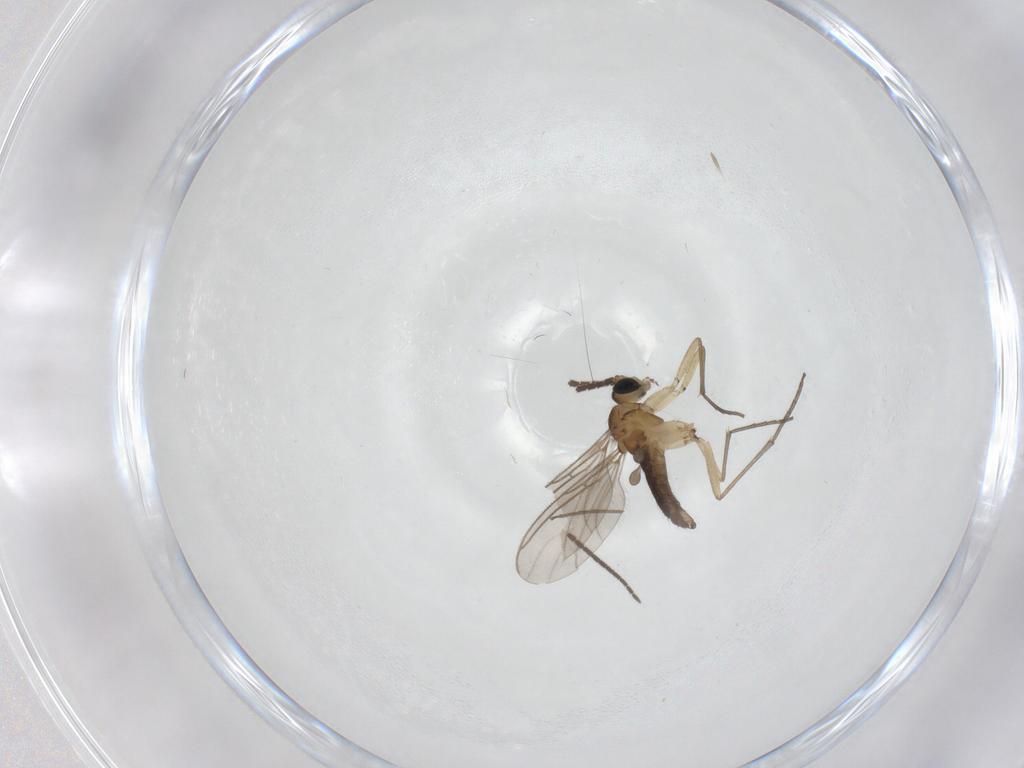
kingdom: Animalia
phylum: Arthropoda
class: Insecta
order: Diptera
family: Sciaridae
